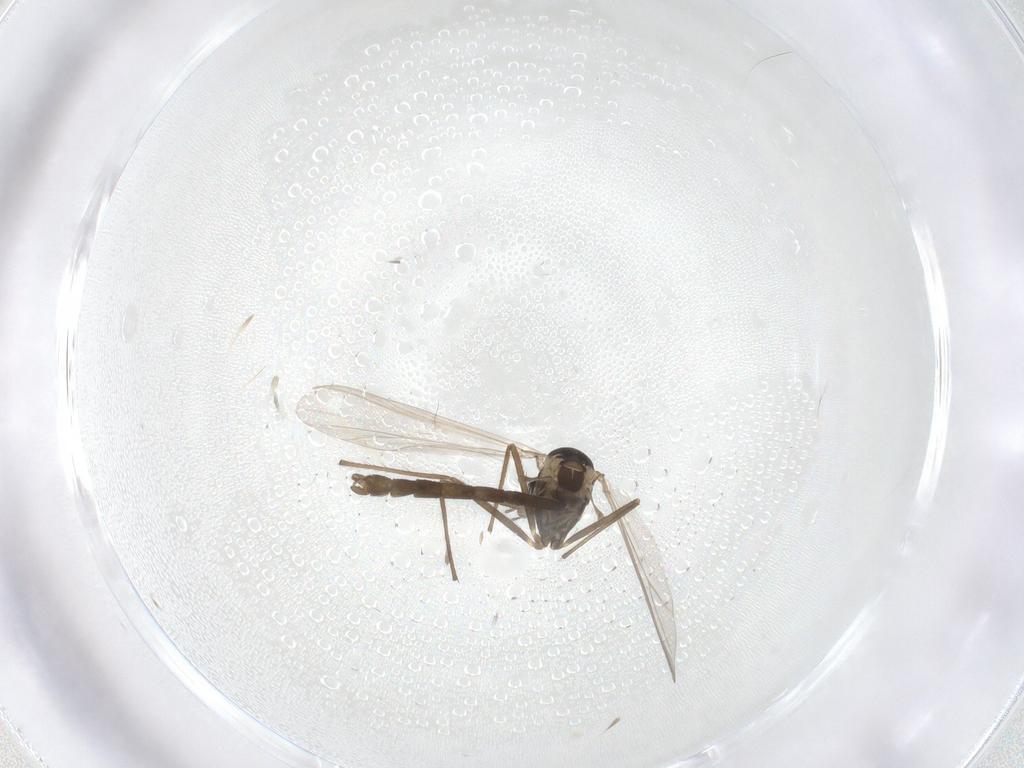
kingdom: Animalia
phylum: Arthropoda
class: Insecta
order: Diptera
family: Chironomidae
